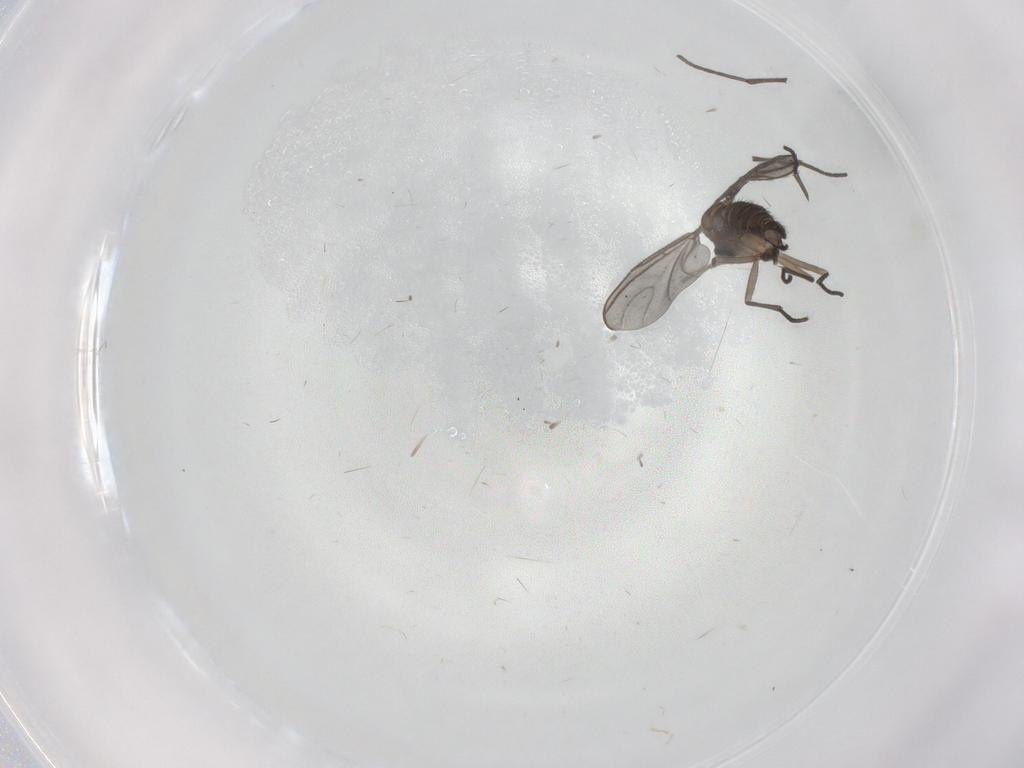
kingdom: Animalia
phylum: Arthropoda
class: Insecta
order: Diptera
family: Sciaridae
